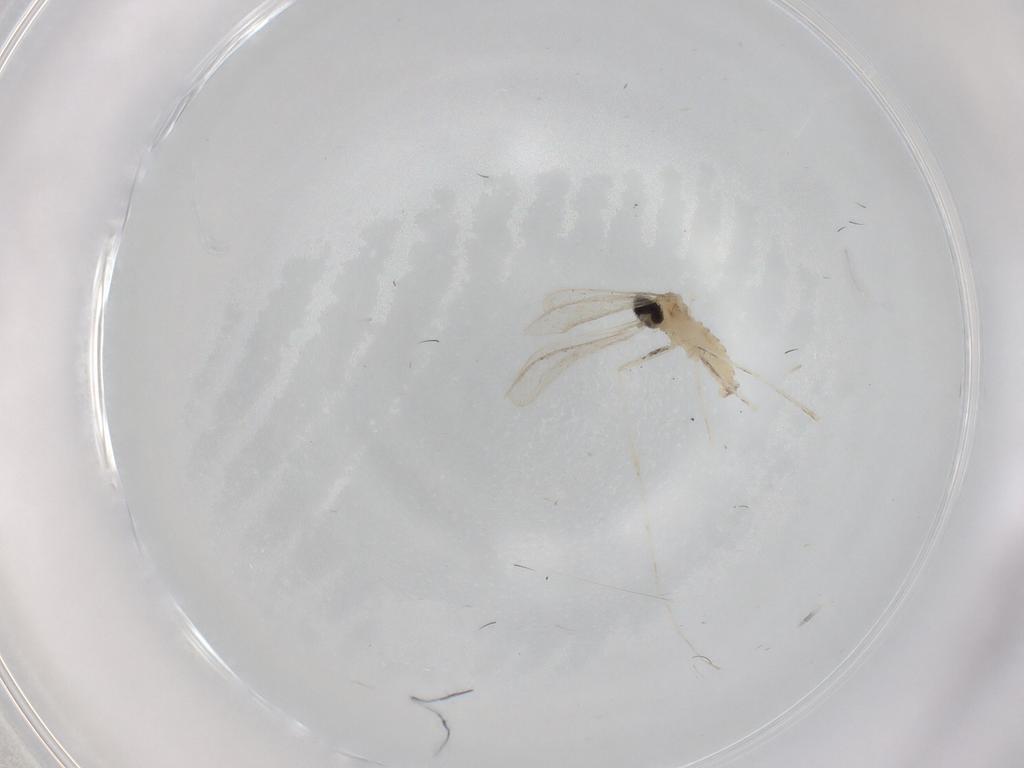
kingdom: Animalia
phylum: Arthropoda
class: Insecta
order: Diptera
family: Cecidomyiidae
